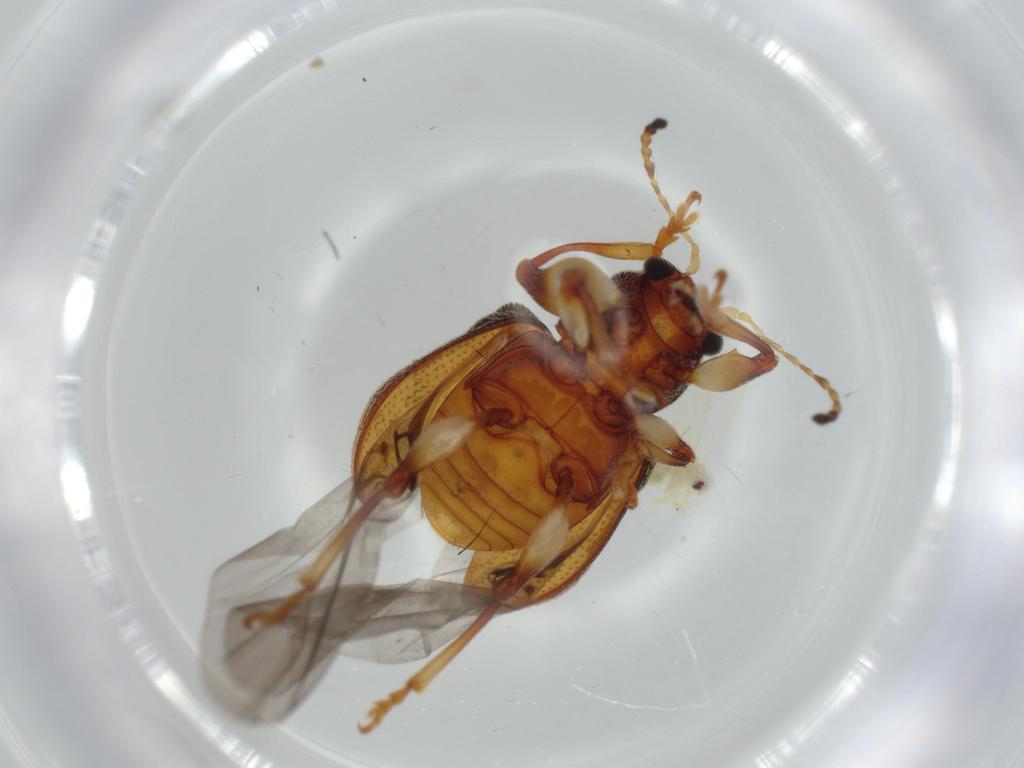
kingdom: Animalia
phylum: Arthropoda
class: Insecta
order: Coleoptera
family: Chrysomelidae
